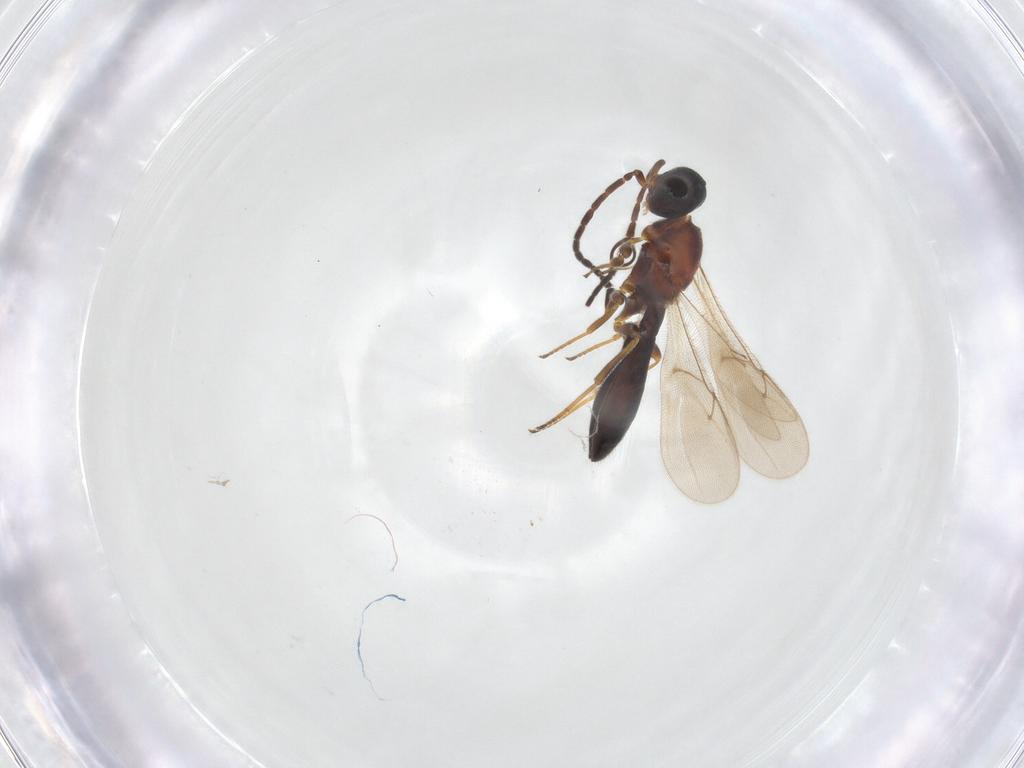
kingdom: Animalia
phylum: Arthropoda
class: Insecta
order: Hymenoptera
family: Scelionidae
